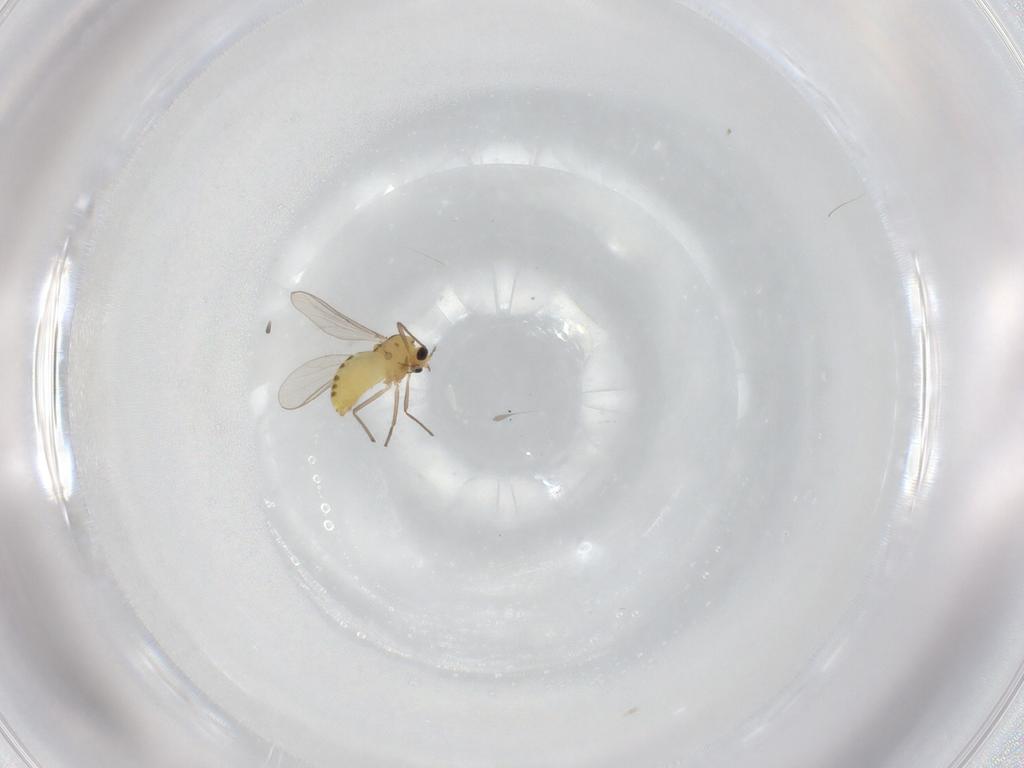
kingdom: Animalia
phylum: Arthropoda
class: Insecta
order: Diptera
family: Chironomidae
